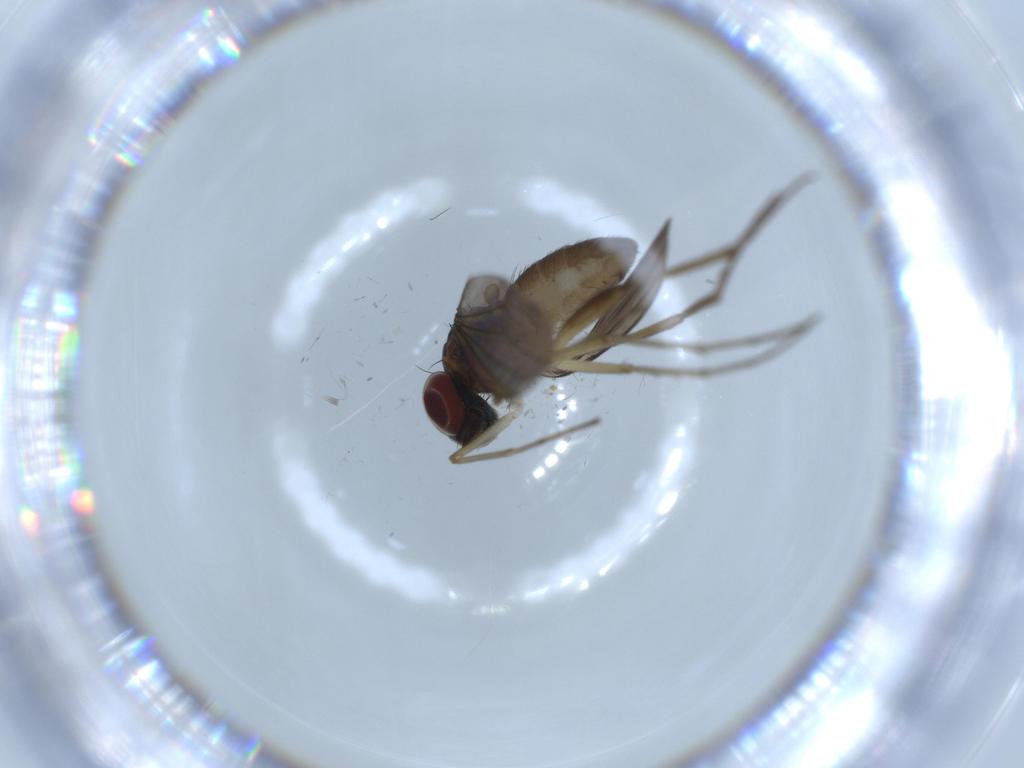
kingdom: Animalia
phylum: Arthropoda
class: Insecta
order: Diptera
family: Dolichopodidae
